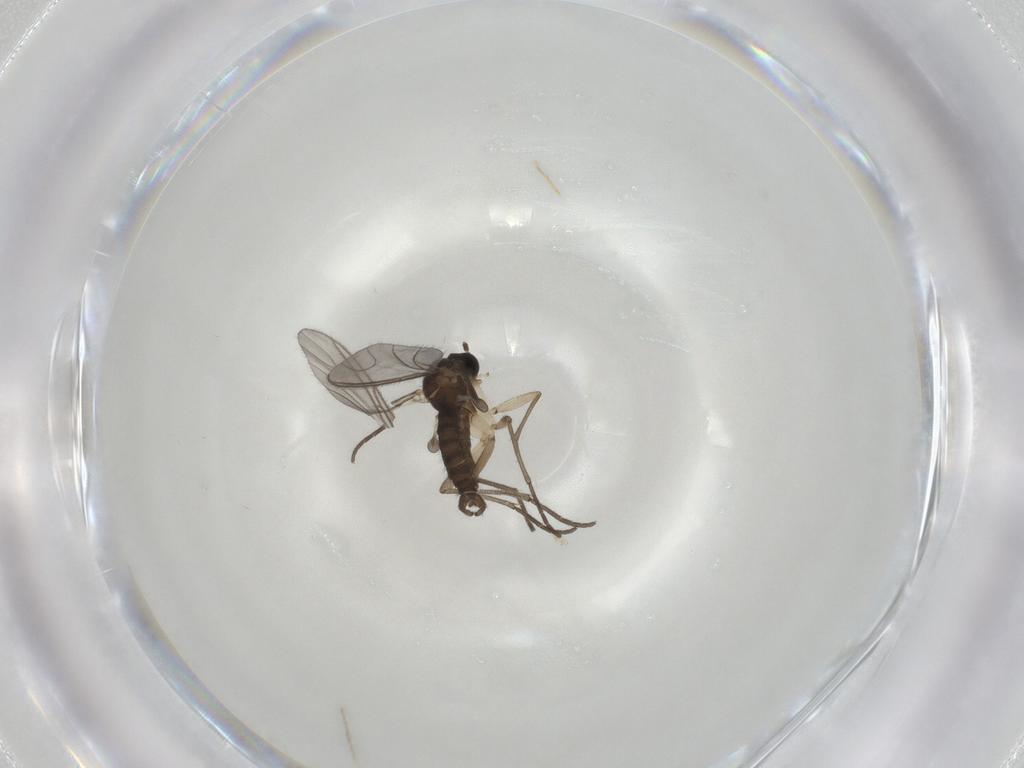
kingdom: Animalia
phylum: Arthropoda
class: Insecta
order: Diptera
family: Sciaridae
